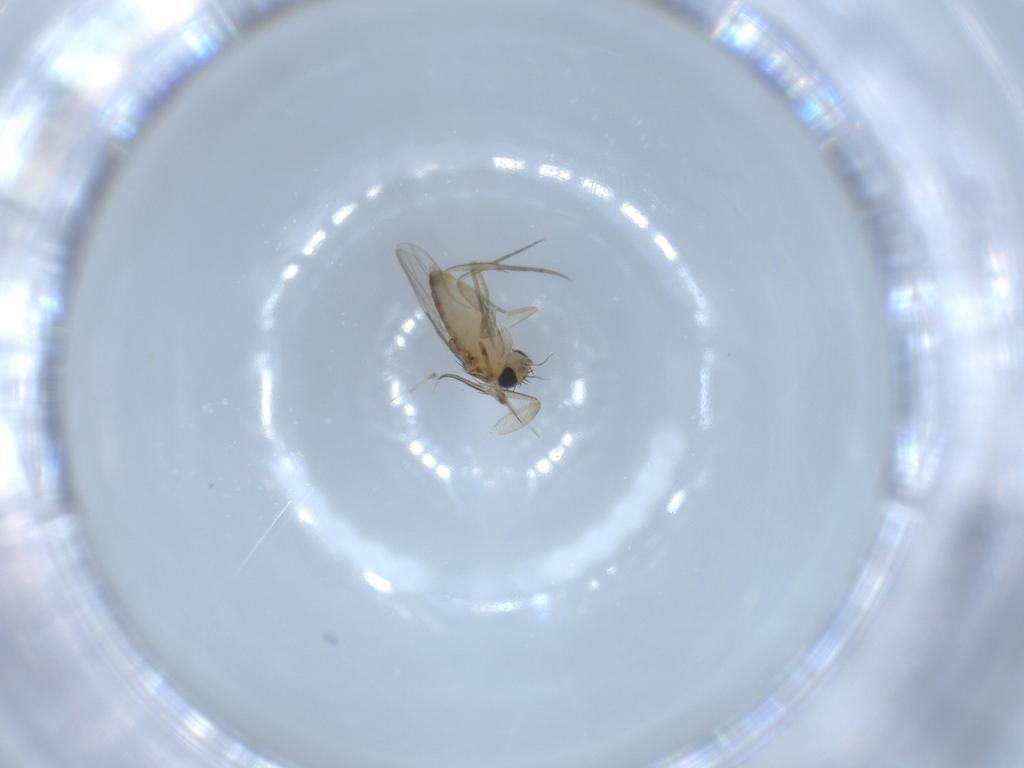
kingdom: Animalia
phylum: Arthropoda
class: Insecta
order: Diptera
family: Phoridae
